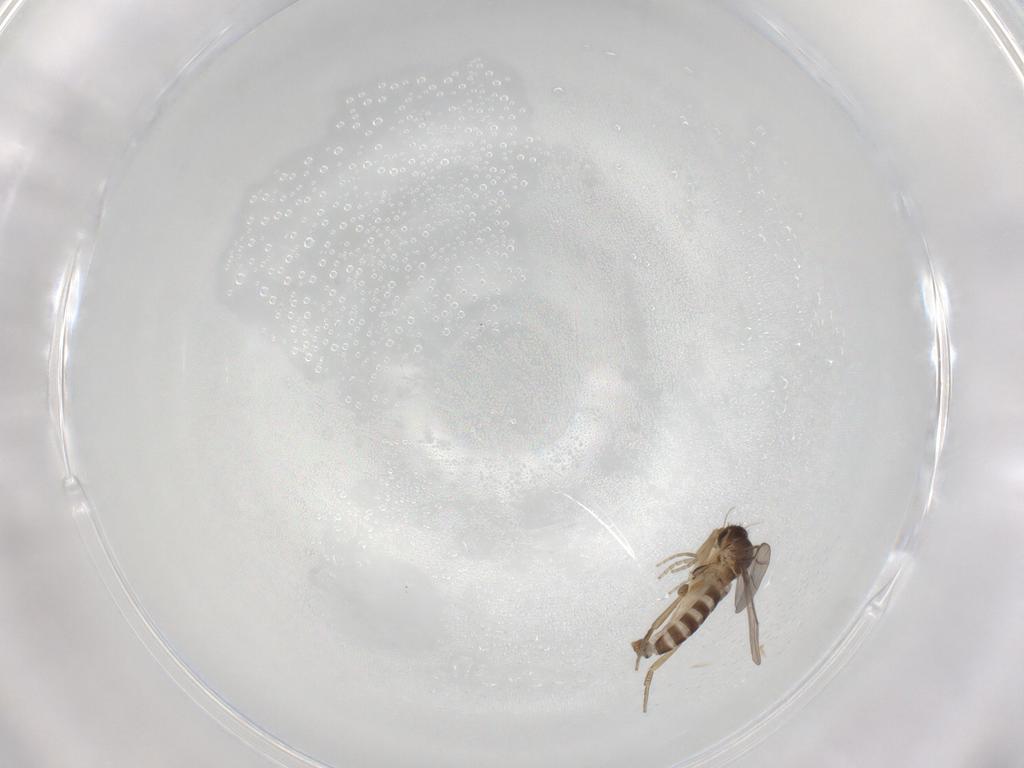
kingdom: Animalia
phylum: Arthropoda
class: Insecta
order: Diptera
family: Phoridae
